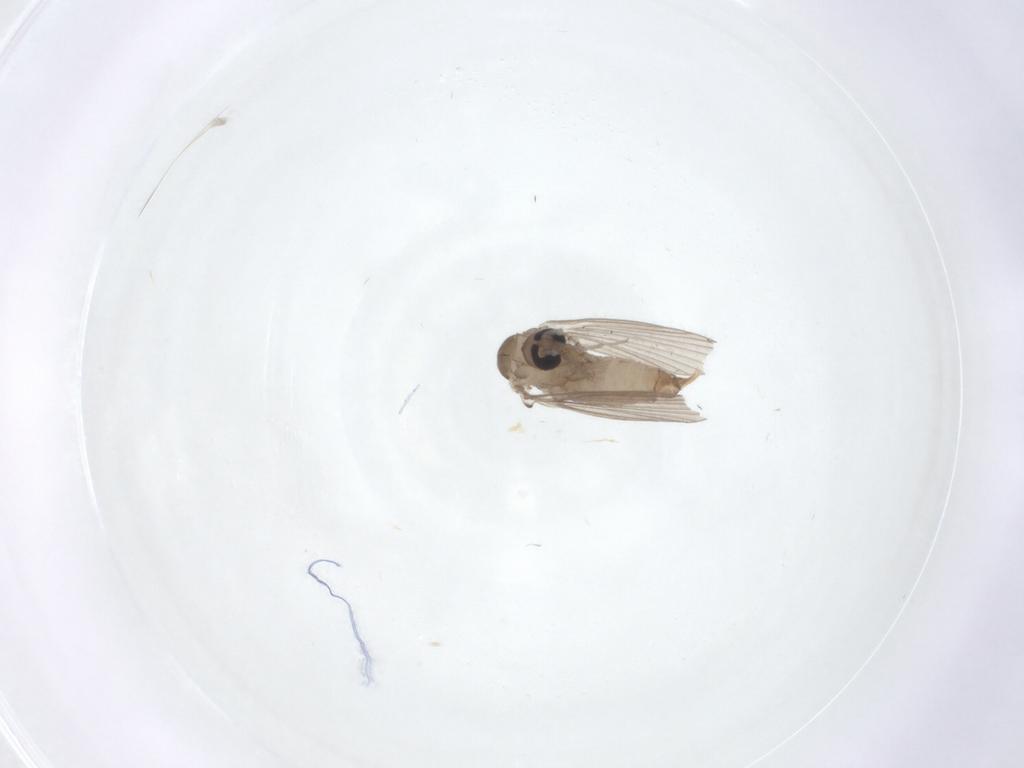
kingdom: Animalia
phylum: Arthropoda
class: Insecta
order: Diptera
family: Psychodidae
